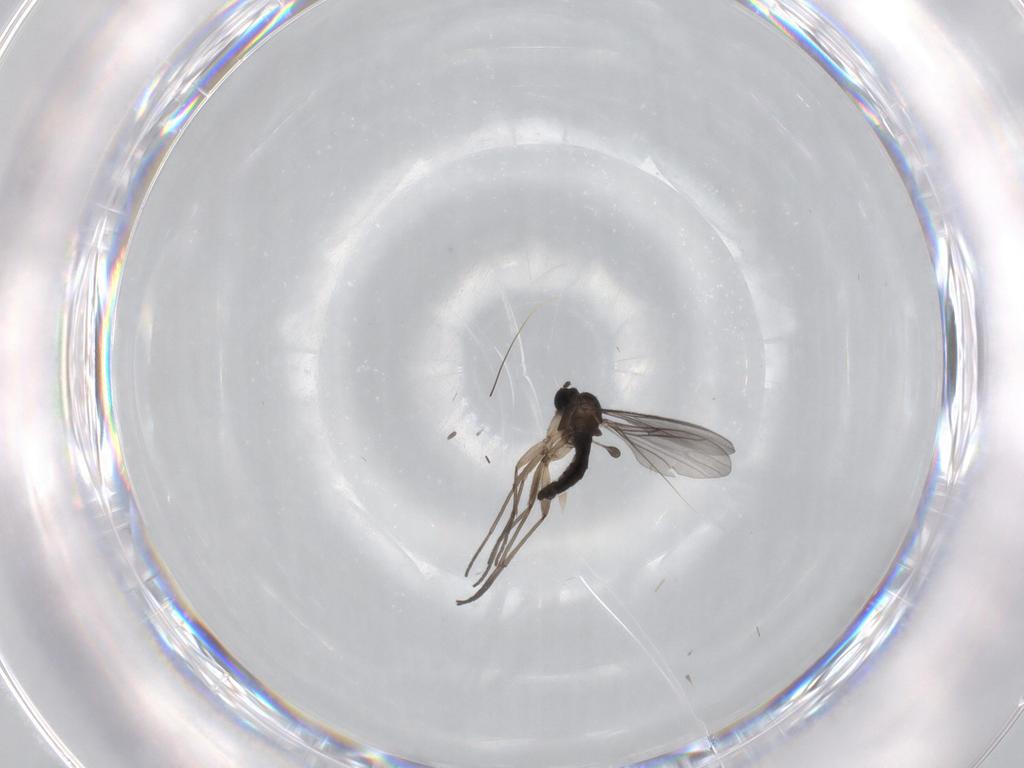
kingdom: Animalia
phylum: Arthropoda
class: Insecta
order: Diptera
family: Sciaridae
